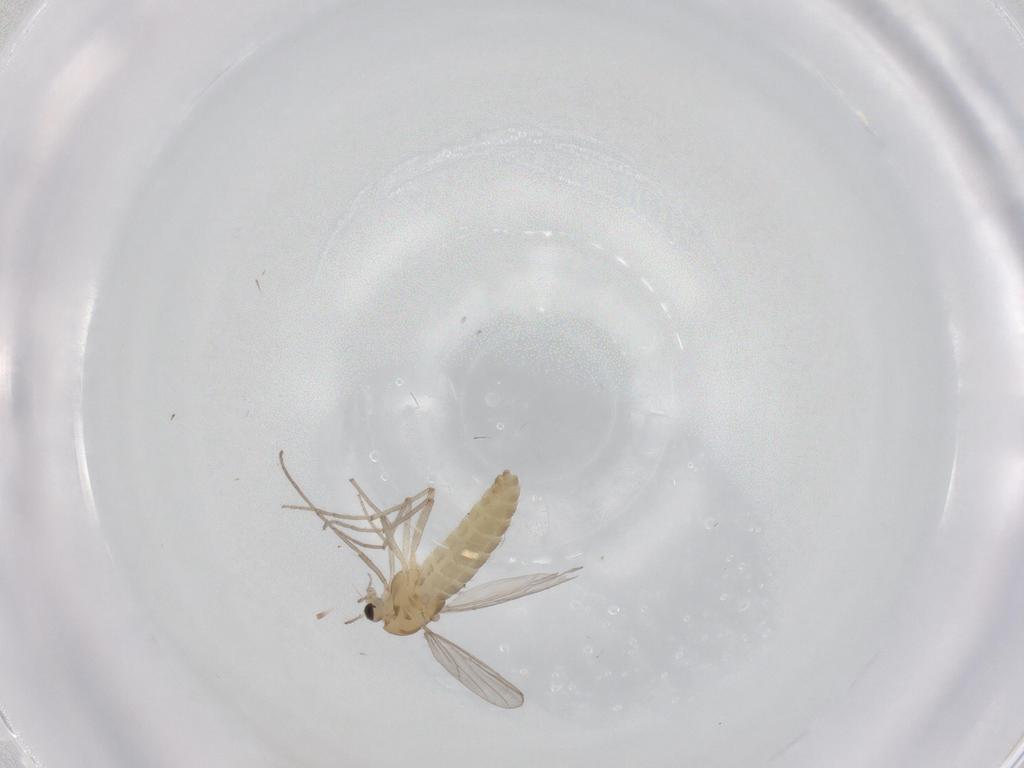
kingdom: Animalia
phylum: Arthropoda
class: Insecta
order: Diptera
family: Chironomidae
